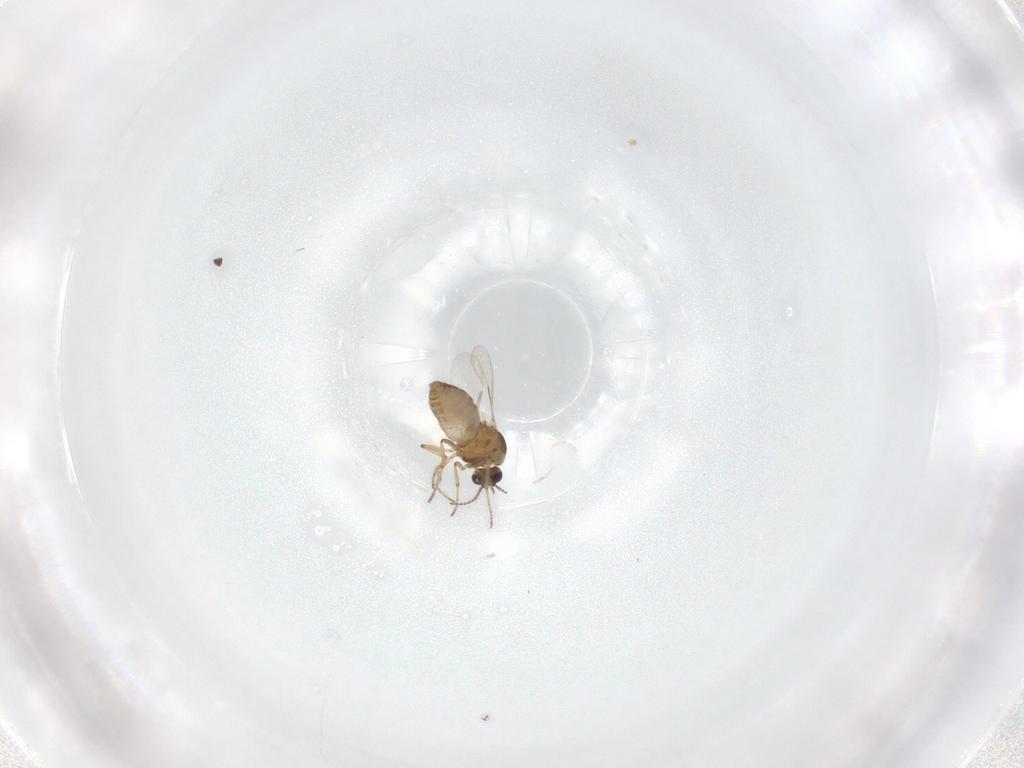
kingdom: Animalia
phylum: Arthropoda
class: Insecta
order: Diptera
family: Ceratopogonidae
